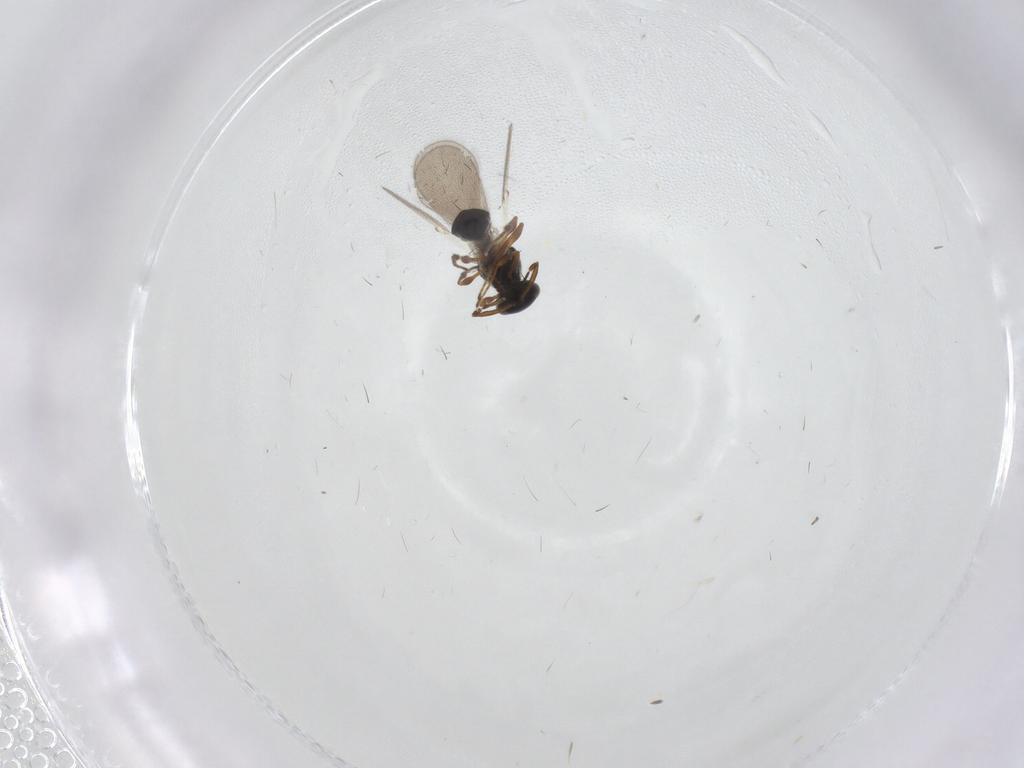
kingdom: Animalia
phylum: Arthropoda
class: Insecta
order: Hymenoptera
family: Platygastridae
